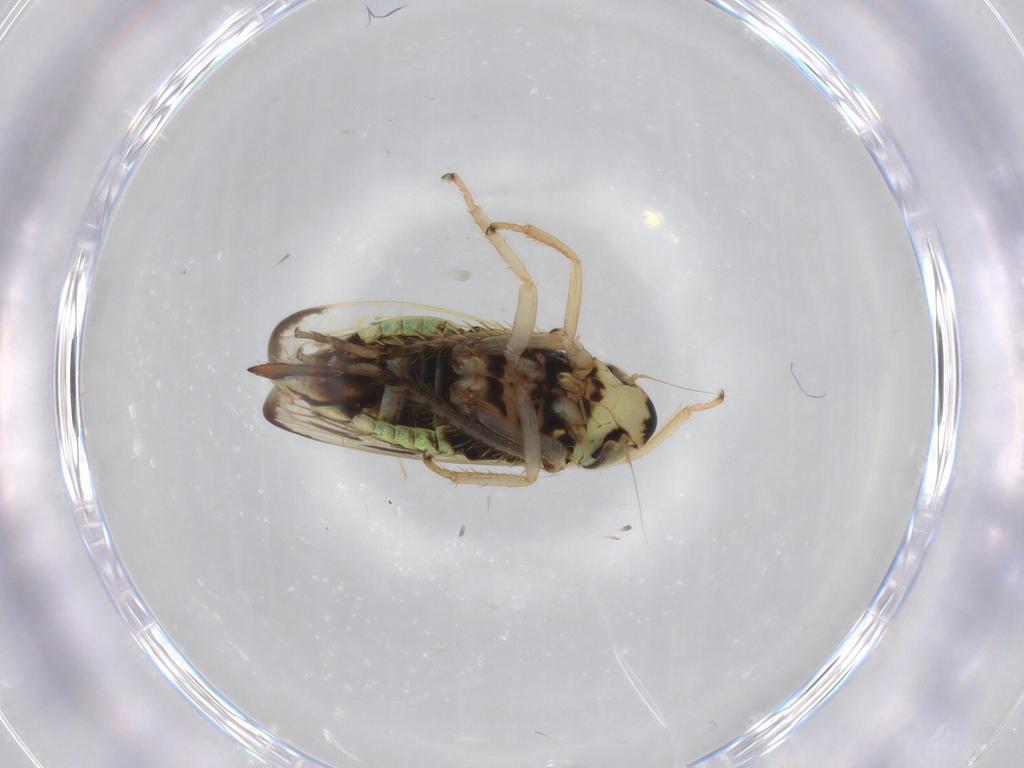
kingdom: Animalia
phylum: Arthropoda
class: Insecta
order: Hemiptera
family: Cicadellidae
